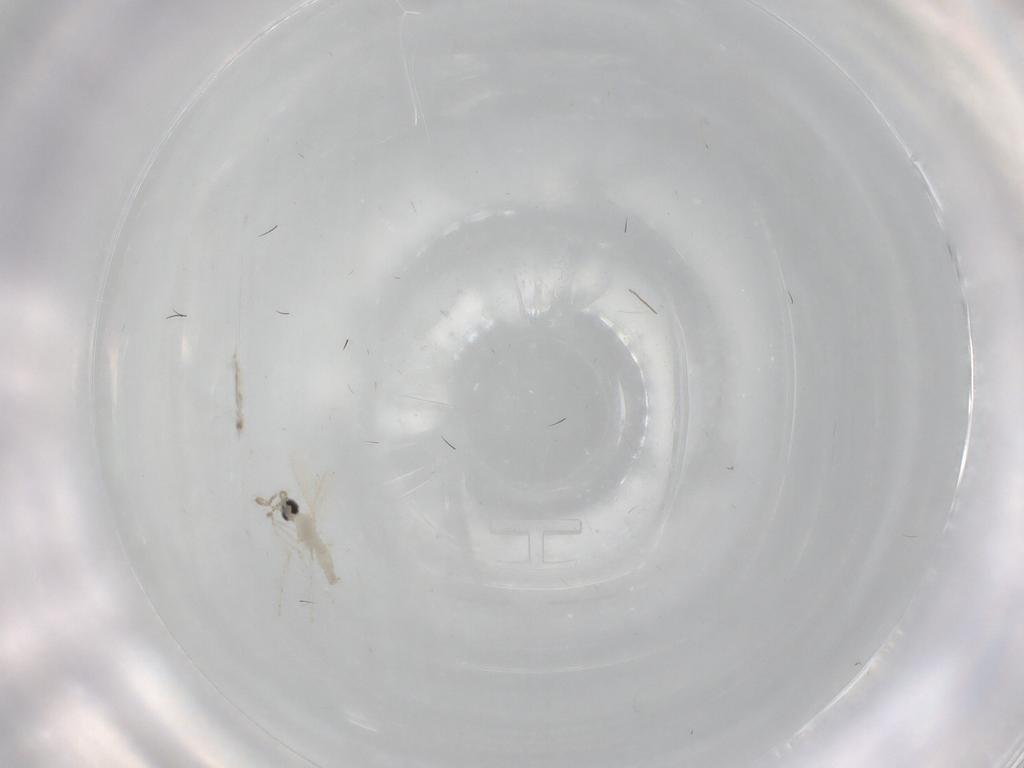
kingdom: Animalia
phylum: Arthropoda
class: Insecta
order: Diptera
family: Cecidomyiidae
